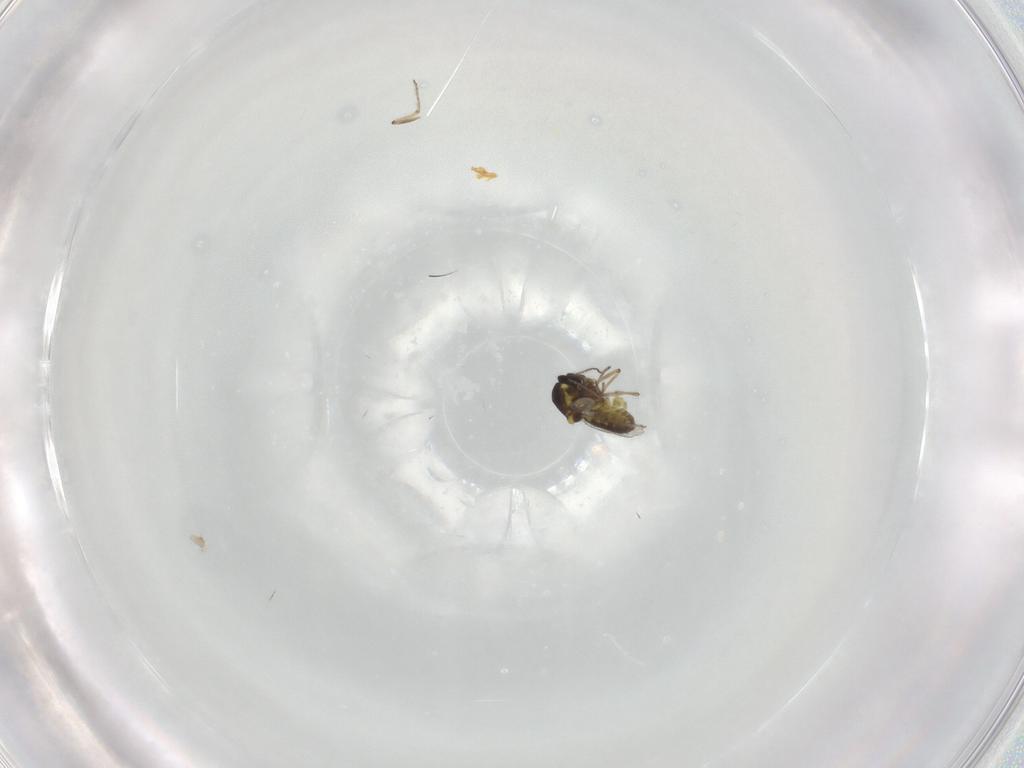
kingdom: Animalia
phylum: Arthropoda
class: Insecta
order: Diptera
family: Ceratopogonidae
